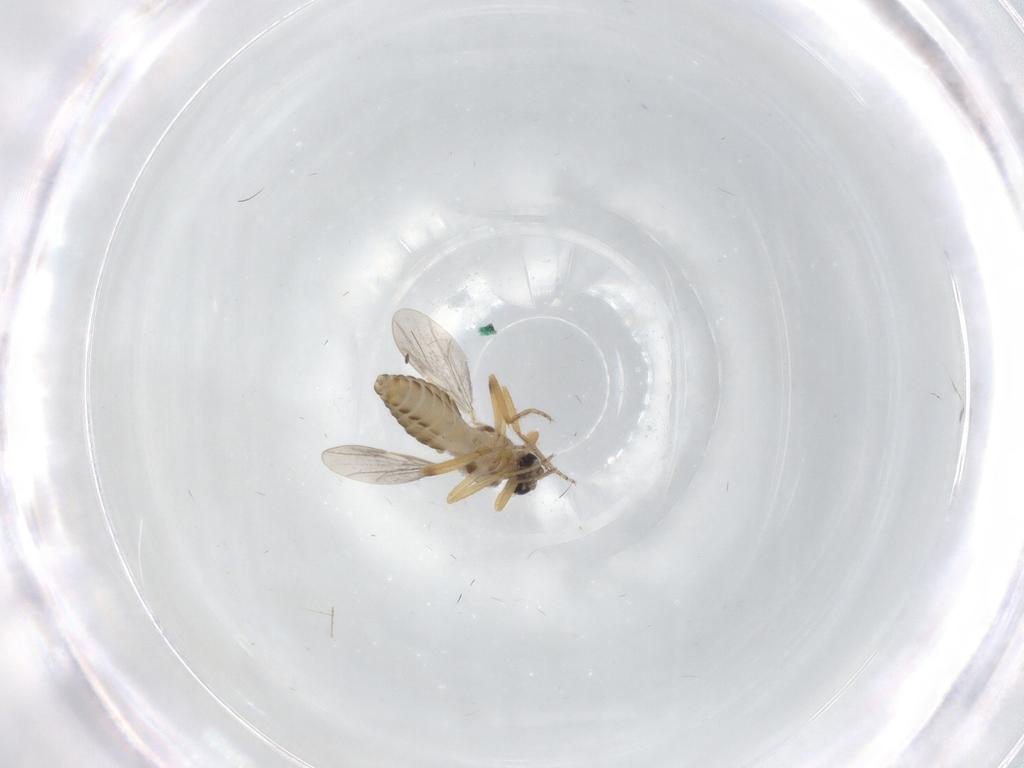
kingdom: Animalia
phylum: Arthropoda
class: Insecta
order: Diptera
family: Ceratopogonidae
